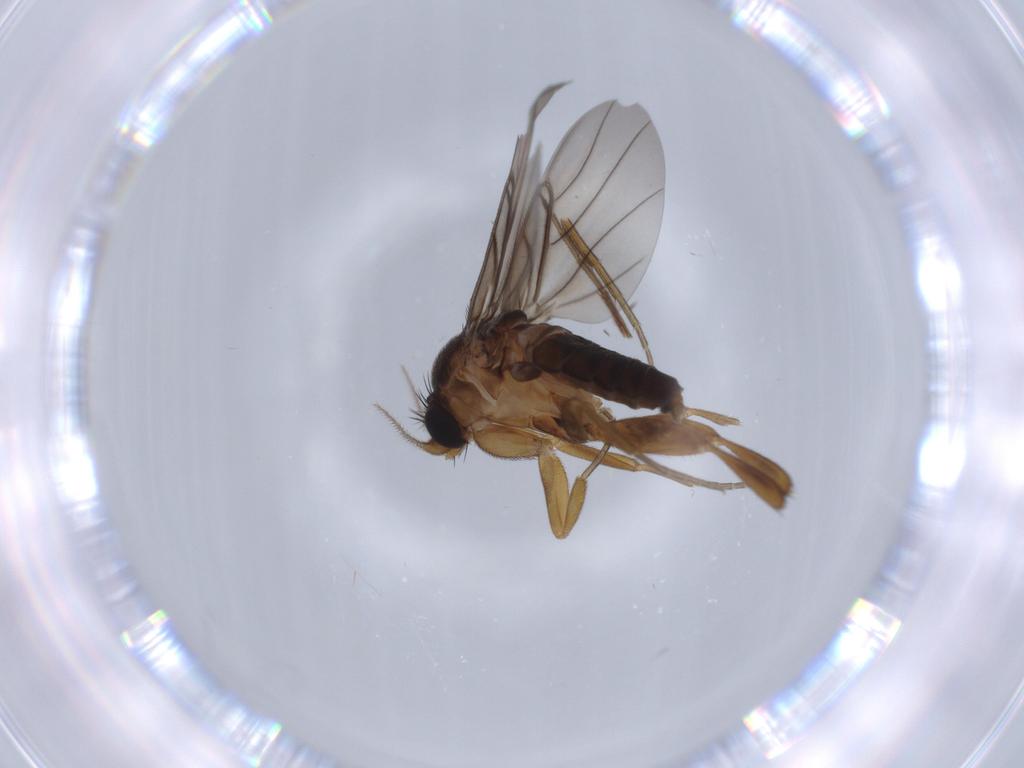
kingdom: Animalia
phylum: Arthropoda
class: Insecta
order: Diptera
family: Phoridae
